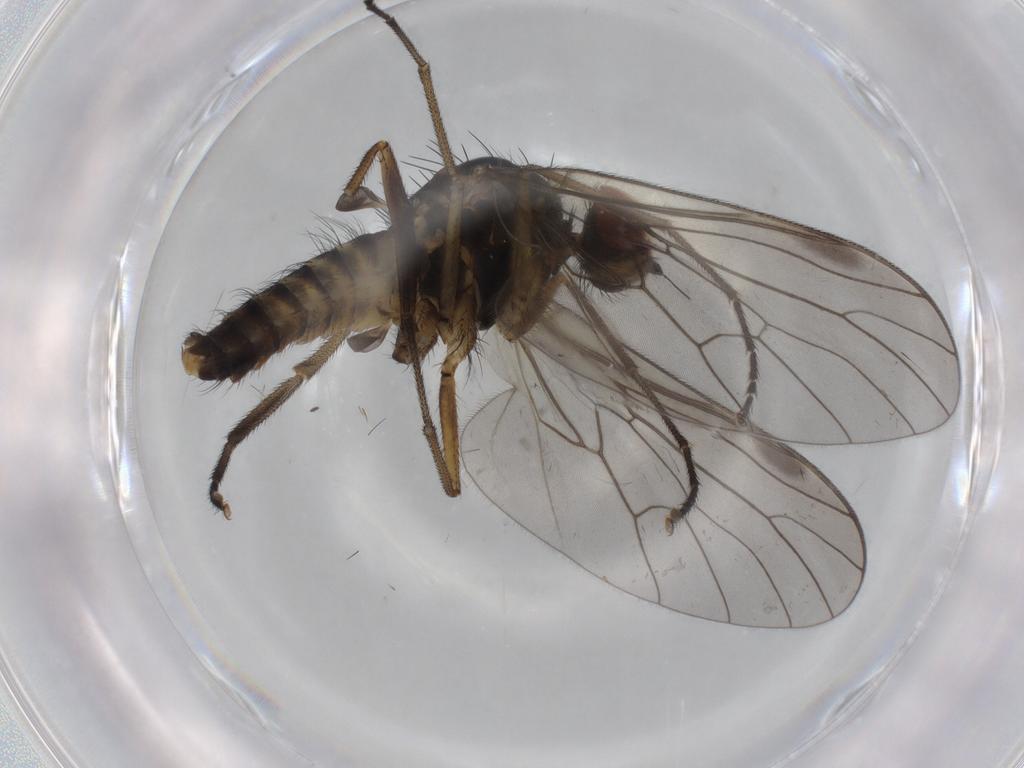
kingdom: Animalia
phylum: Arthropoda
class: Insecta
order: Diptera
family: Brachystomatidae
